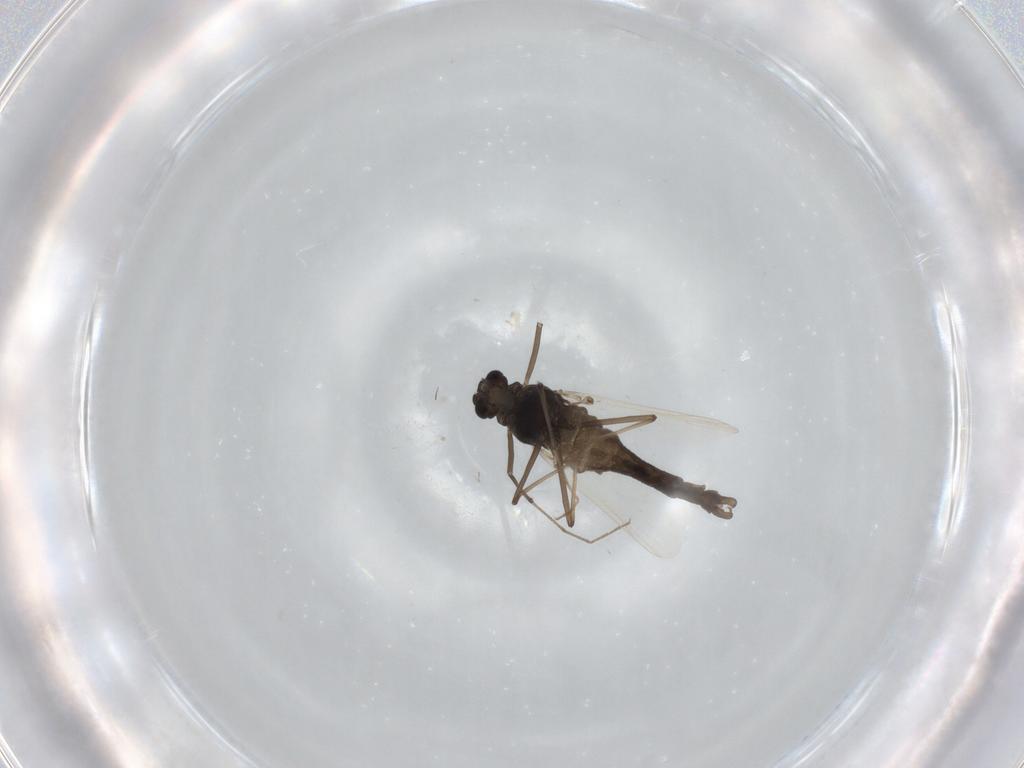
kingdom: Animalia
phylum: Arthropoda
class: Insecta
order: Diptera
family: Chironomidae
